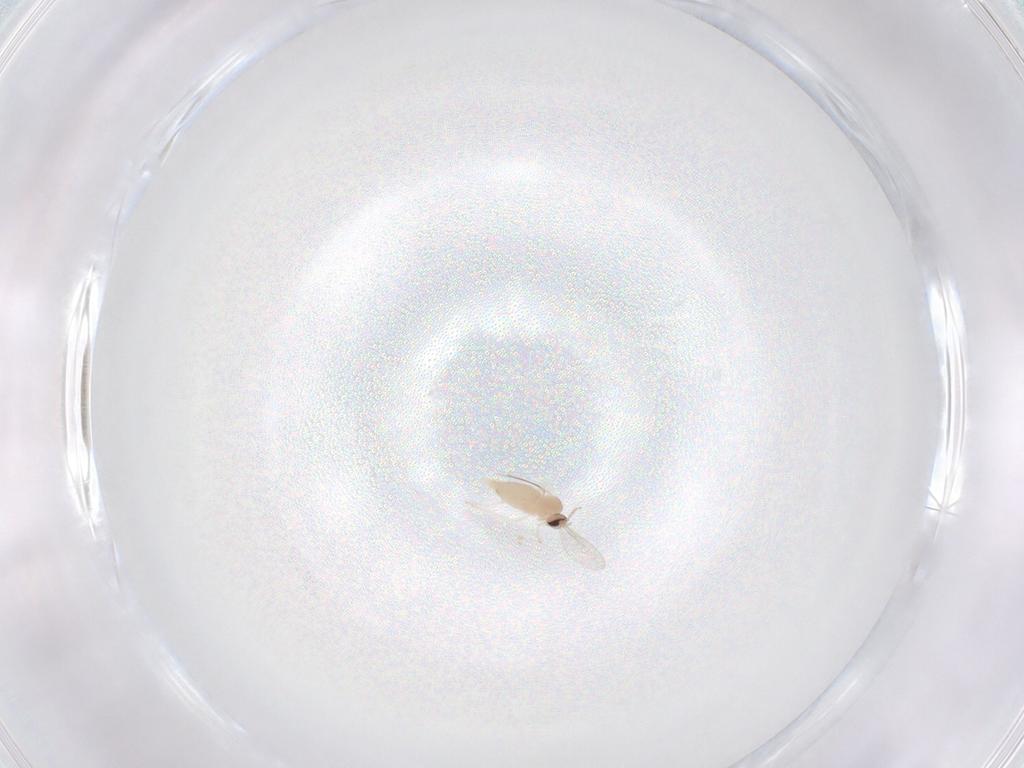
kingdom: Animalia
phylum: Arthropoda
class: Insecta
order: Diptera
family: Cecidomyiidae
